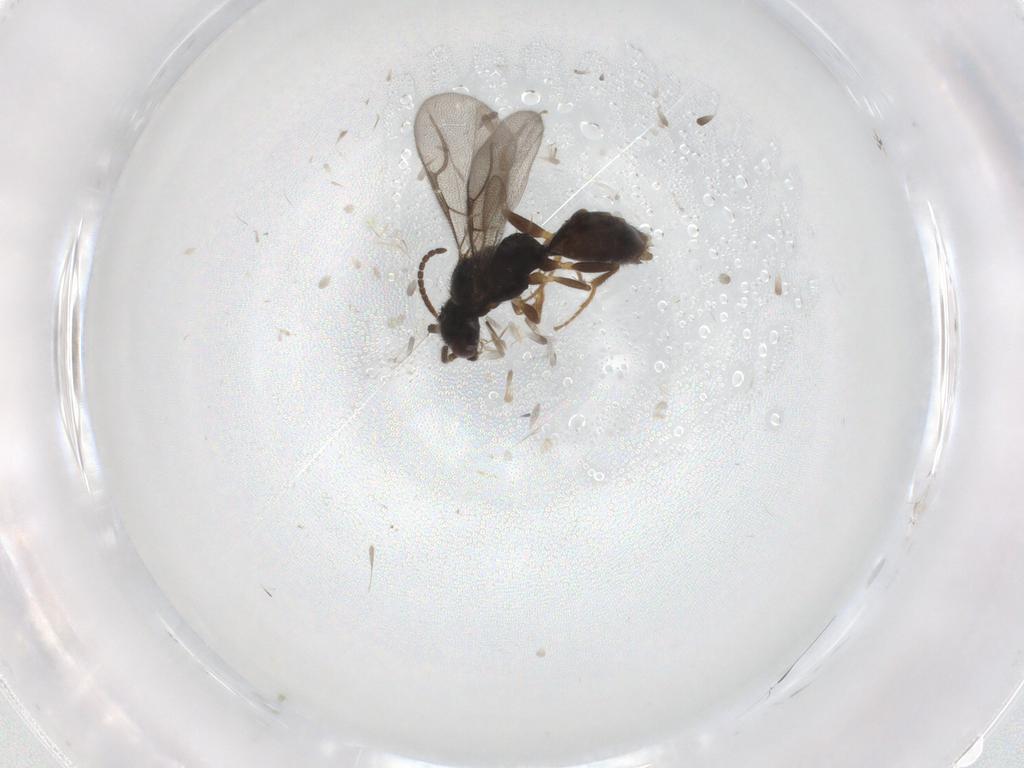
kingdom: Animalia
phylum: Arthropoda
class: Insecta
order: Hymenoptera
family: Bethylidae
